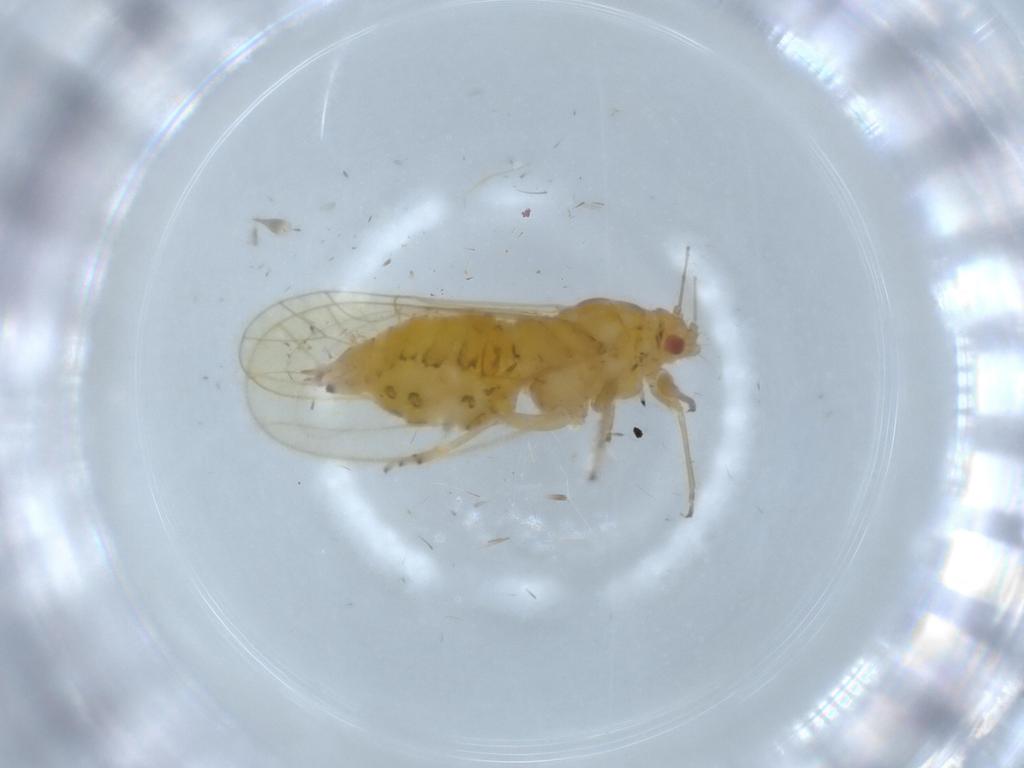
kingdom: Animalia
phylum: Arthropoda
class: Insecta
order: Hemiptera
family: Psyllidae
